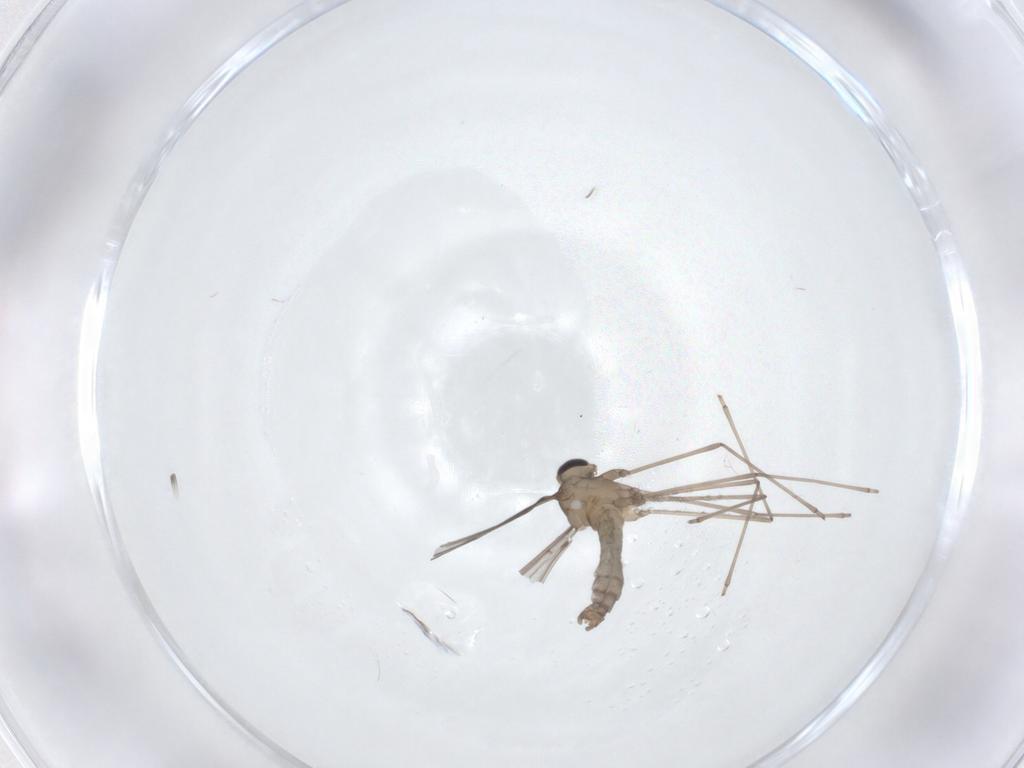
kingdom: Animalia
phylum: Arthropoda
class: Insecta
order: Diptera
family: Cecidomyiidae
